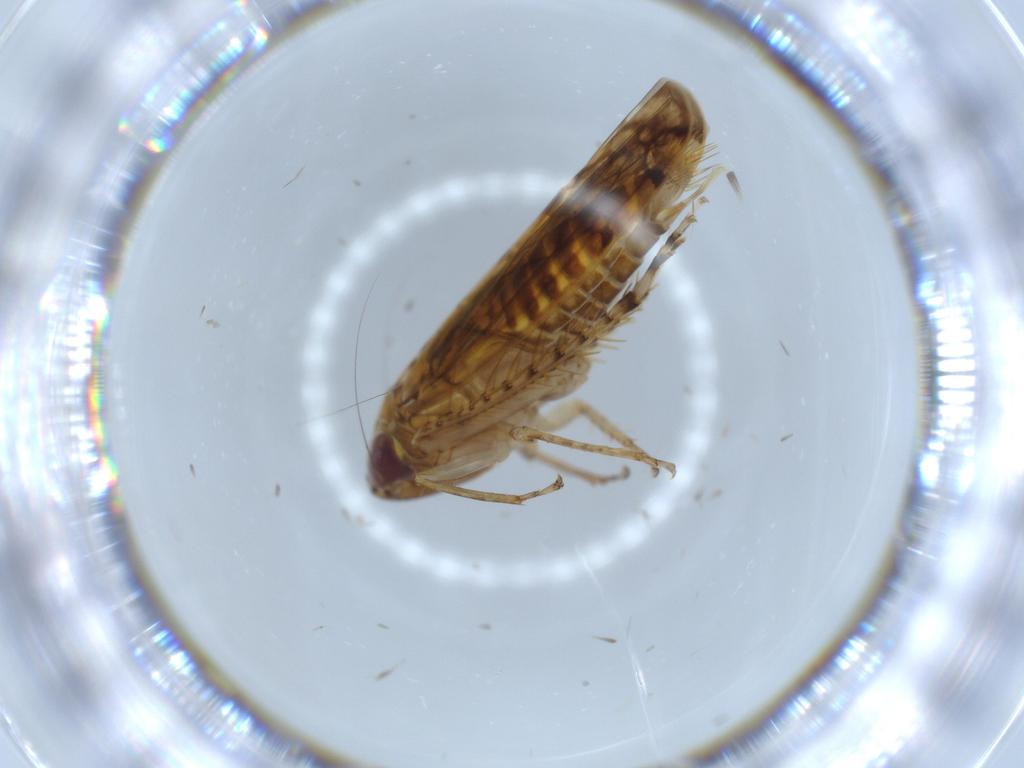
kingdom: Animalia
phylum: Arthropoda
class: Insecta
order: Hemiptera
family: Cicadellidae
